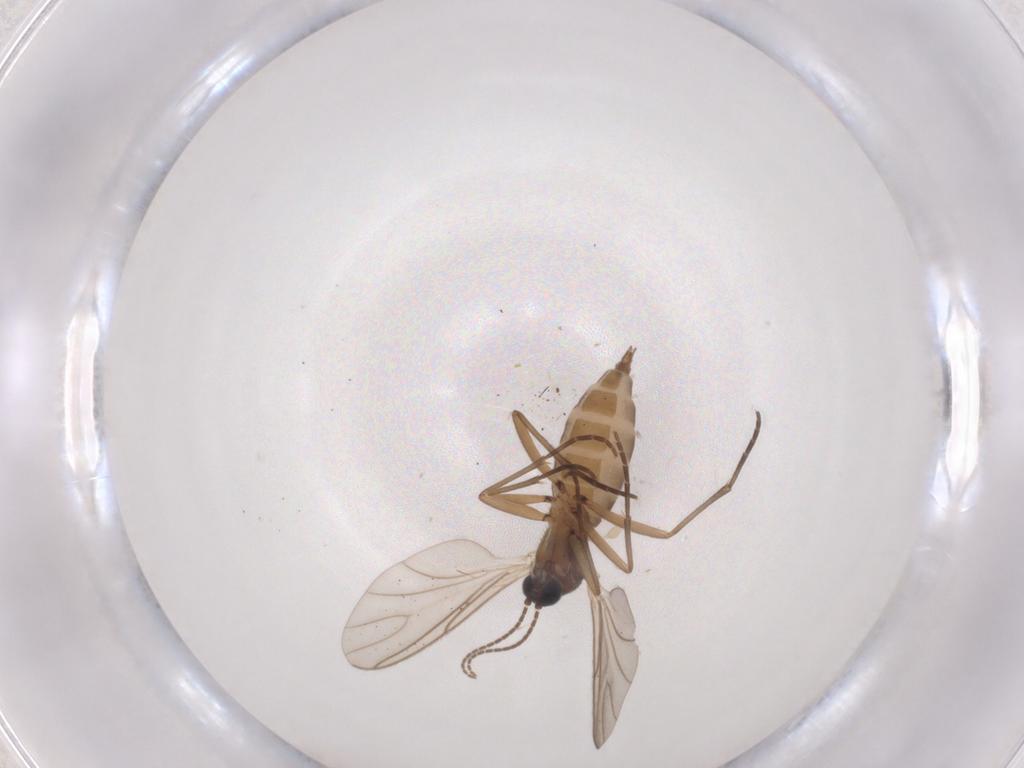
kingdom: Animalia
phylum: Arthropoda
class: Insecta
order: Diptera
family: Sciaridae
